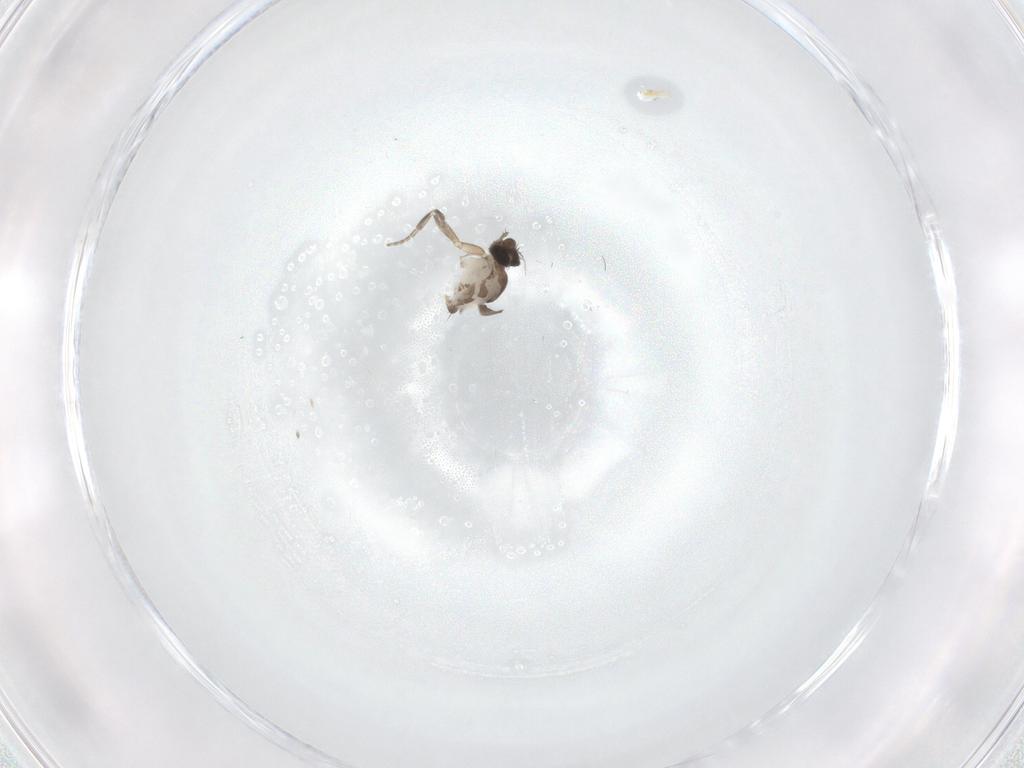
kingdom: Animalia
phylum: Arthropoda
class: Insecta
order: Diptera
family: Phoridae
